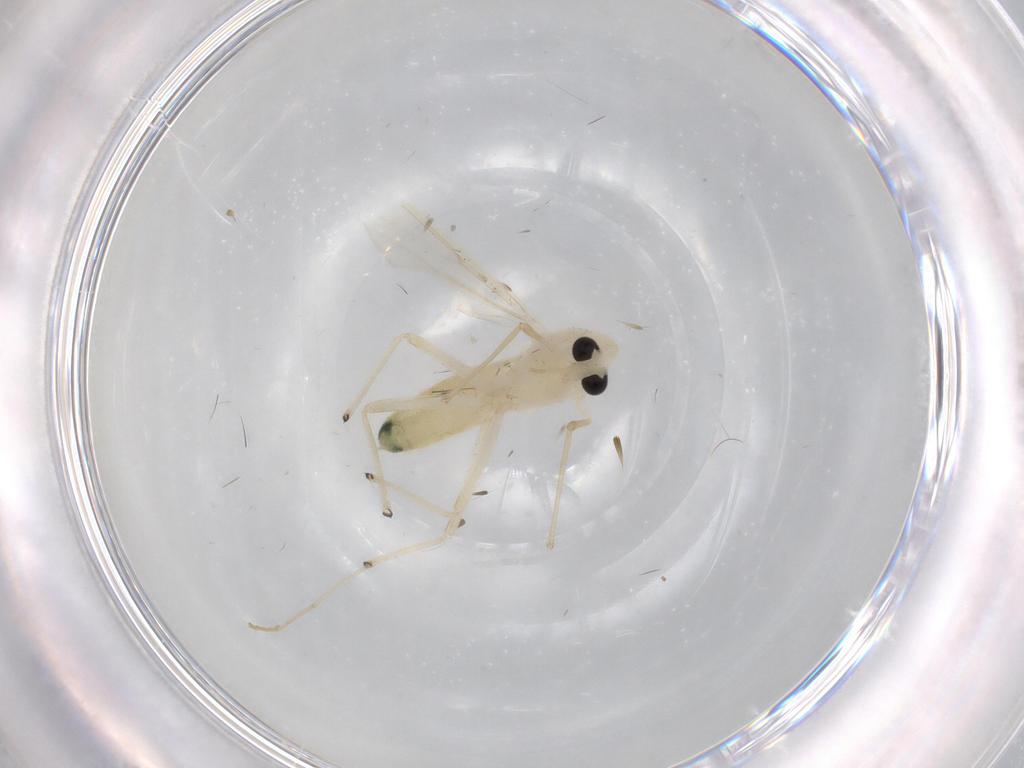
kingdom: Animalia
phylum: Arthropoda
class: Insecta
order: Diptera
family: Chironomidae
